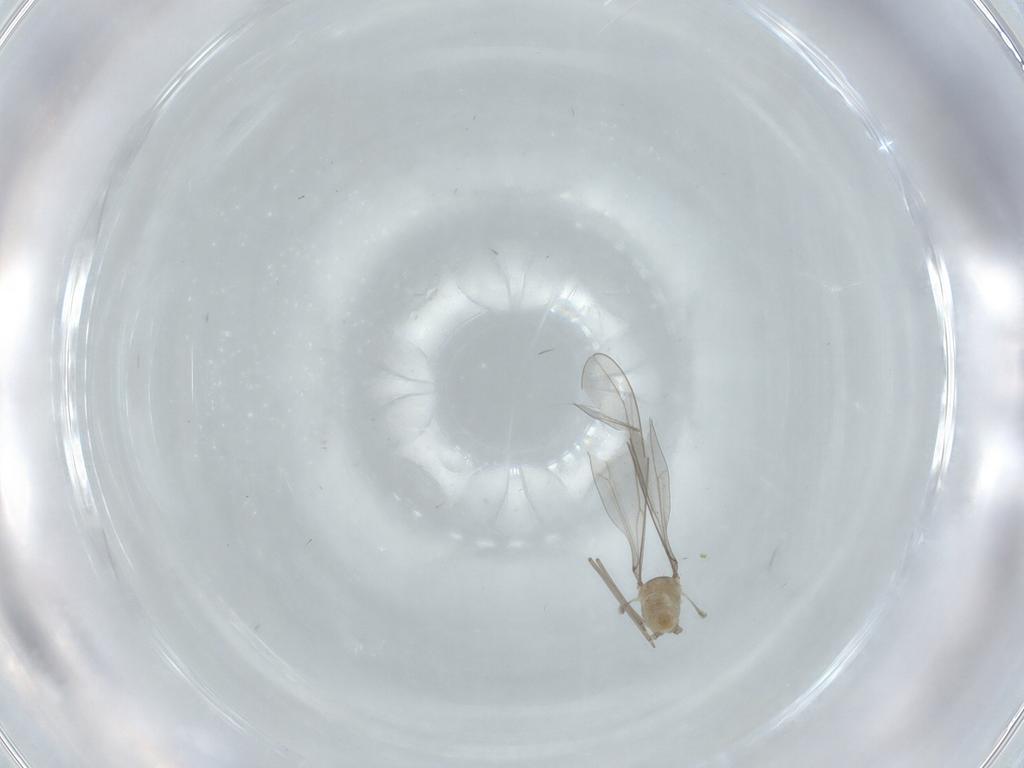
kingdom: Animalia
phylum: Arthropoda
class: Insecta
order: Diptera
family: Cecidomyiidae
